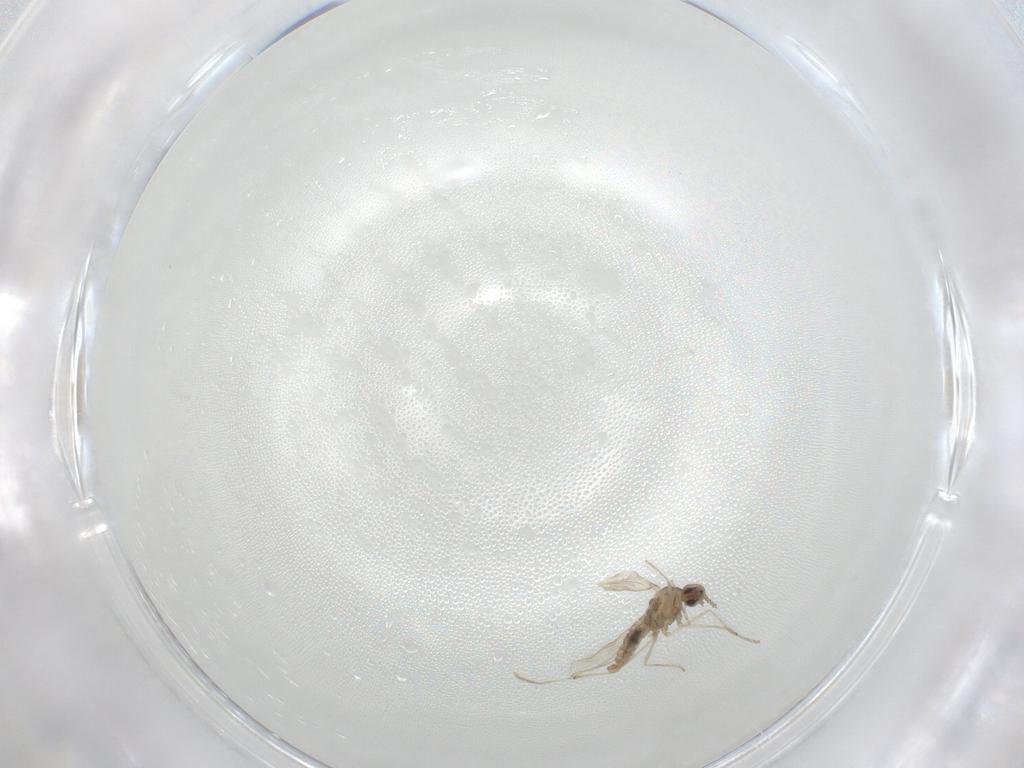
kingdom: Animalia
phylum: Arthropoda
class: Insecta
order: Diptera
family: Cecidomyiidae
